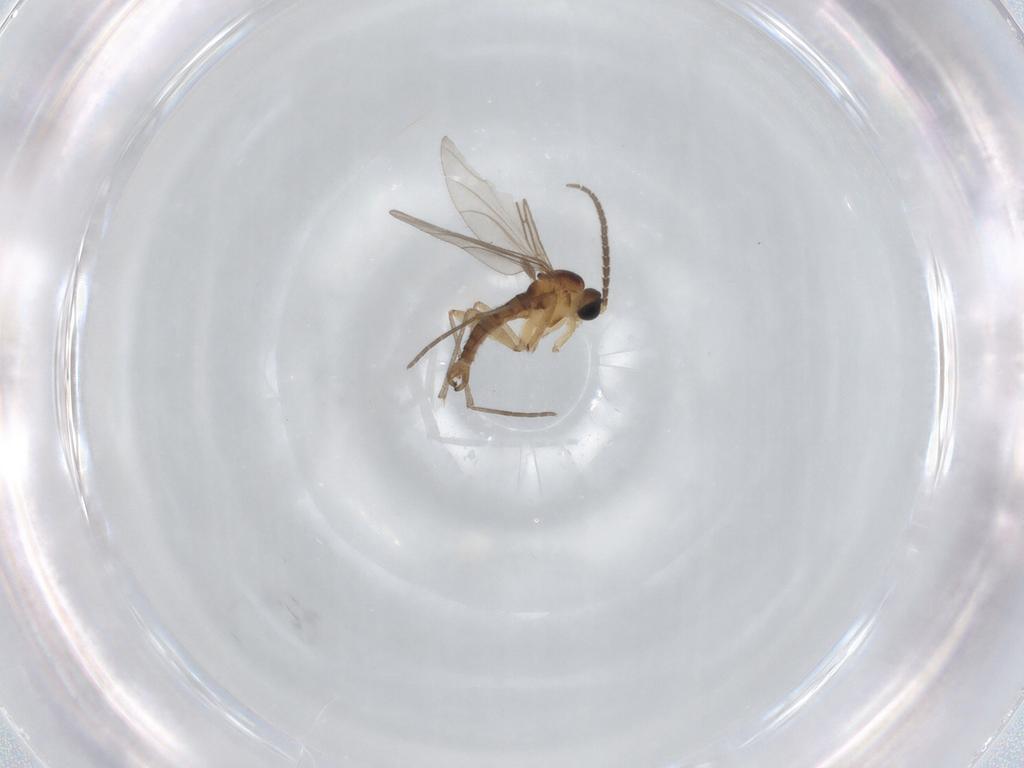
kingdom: Animalia
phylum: Arthropoda
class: Insecta
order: Diptera
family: Sciaridae
